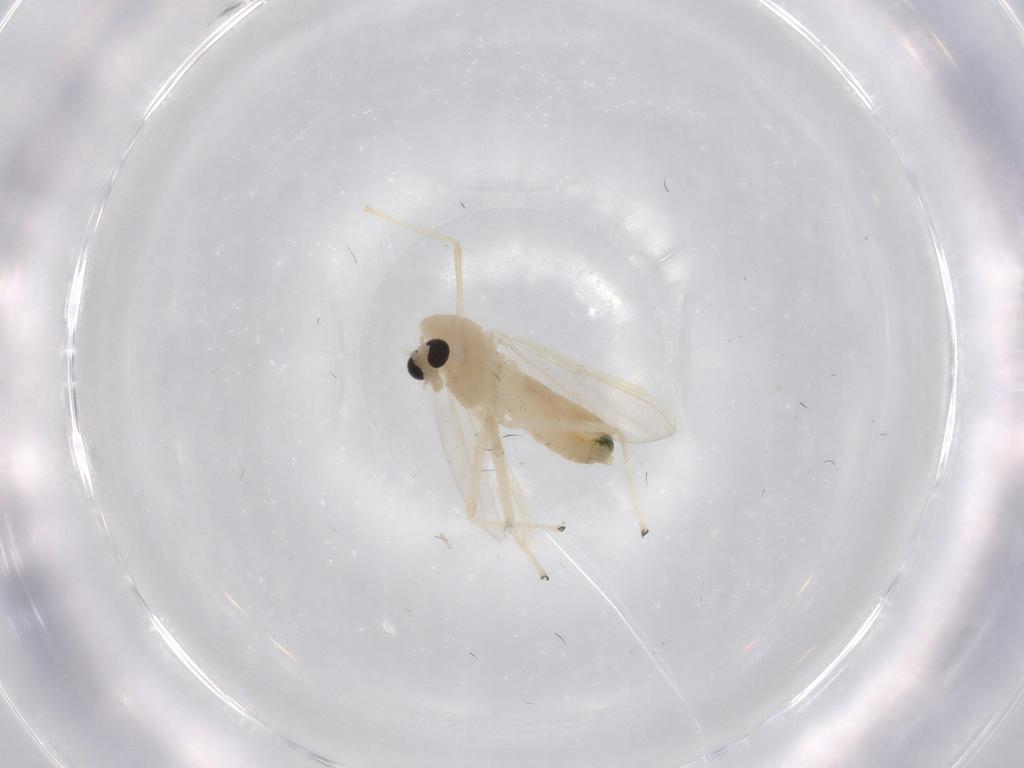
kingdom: Animalia
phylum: Arthropoda
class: Insecta
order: Diptera
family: Chironomidae
